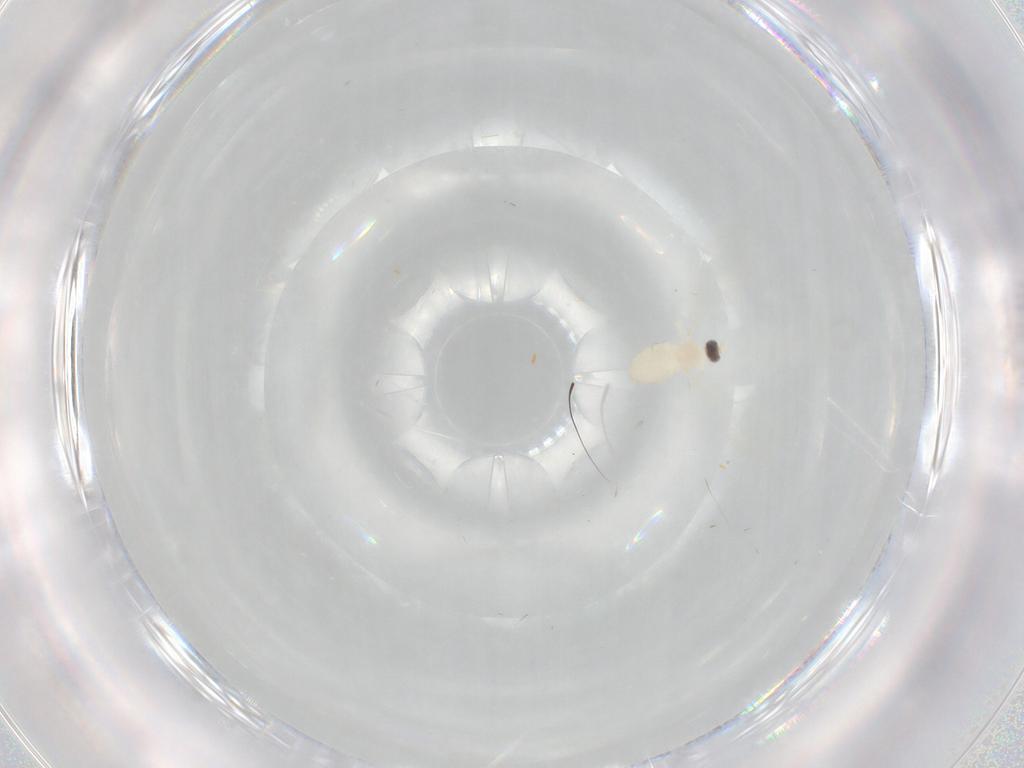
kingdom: Animalia
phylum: Arthropoda
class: Insecta
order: Diptera
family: Cecidomyiidae
